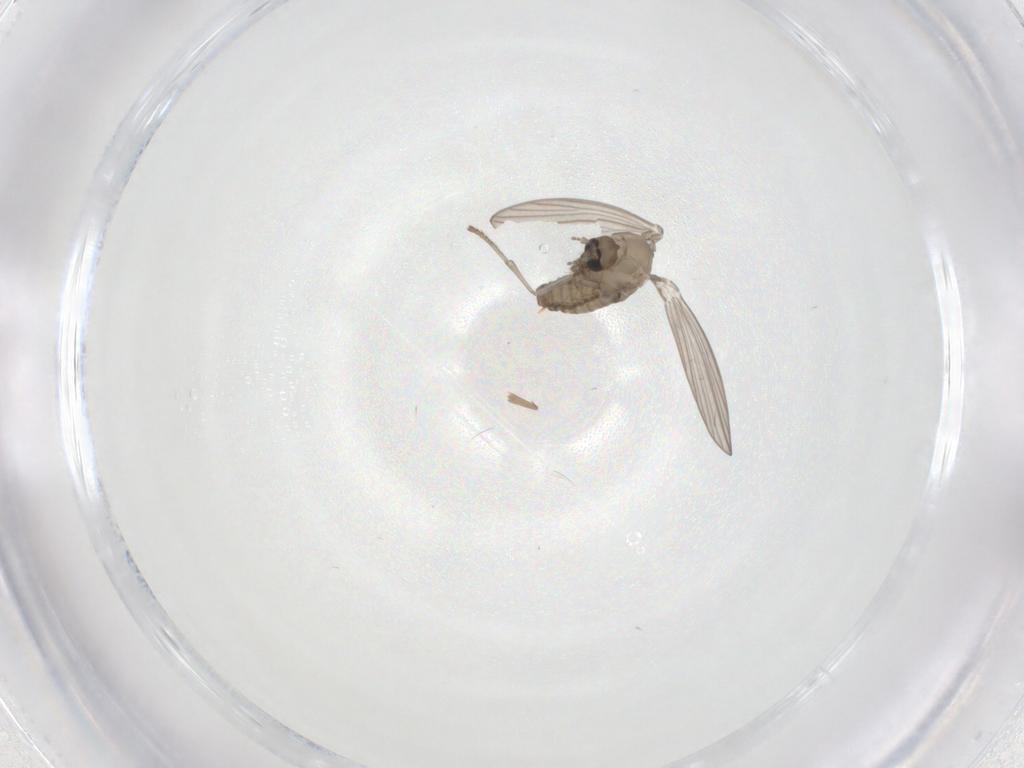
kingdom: Animalia
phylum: Arthropoda
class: Insecta
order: Diptera
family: Psychodidae
